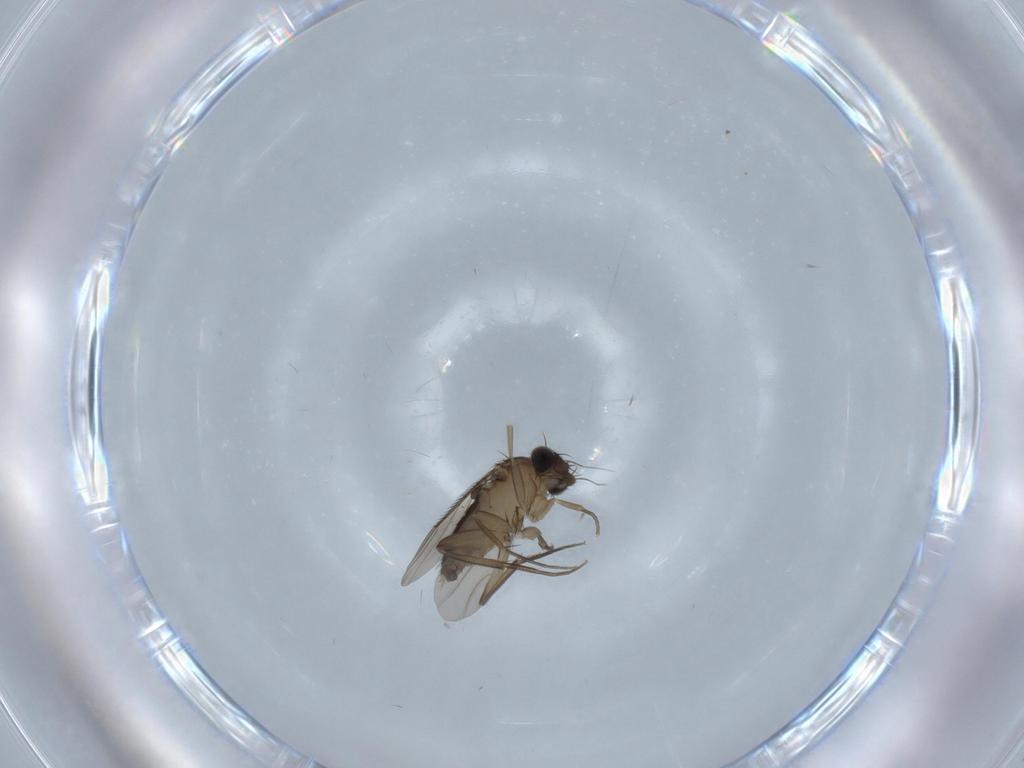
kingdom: Animalia
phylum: Arthropoda
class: Insecta
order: Diptera
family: Phoridae
